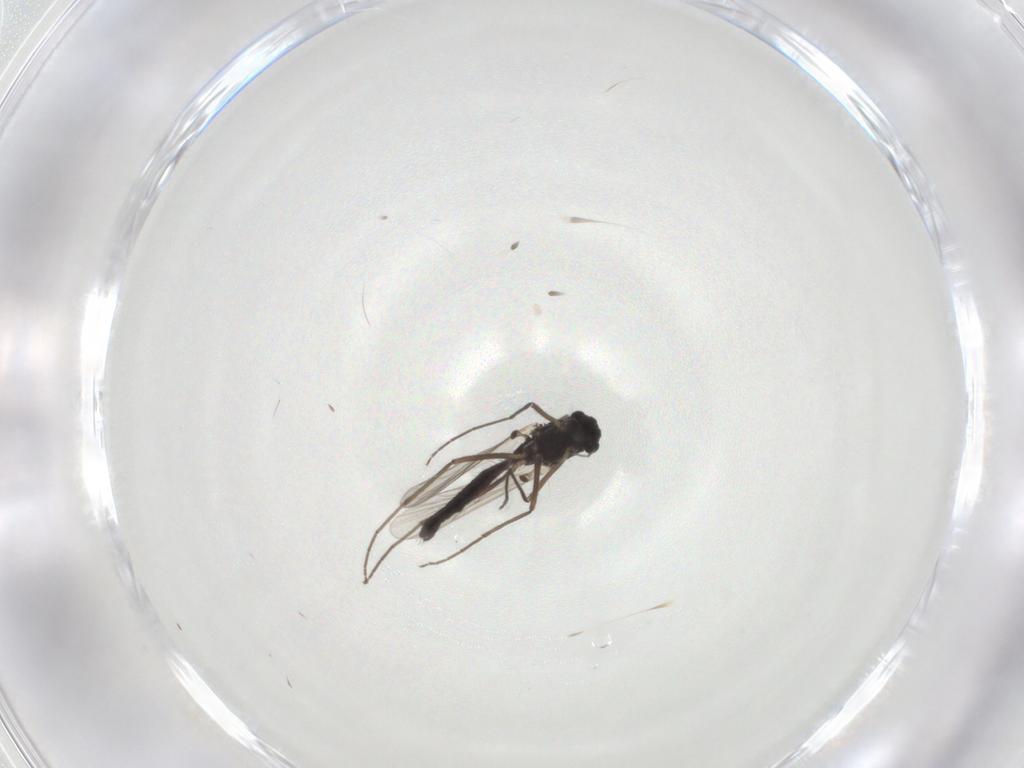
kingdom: Animalia
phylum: Arthropoda
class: Insecta
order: Diptera
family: Chironomidae
